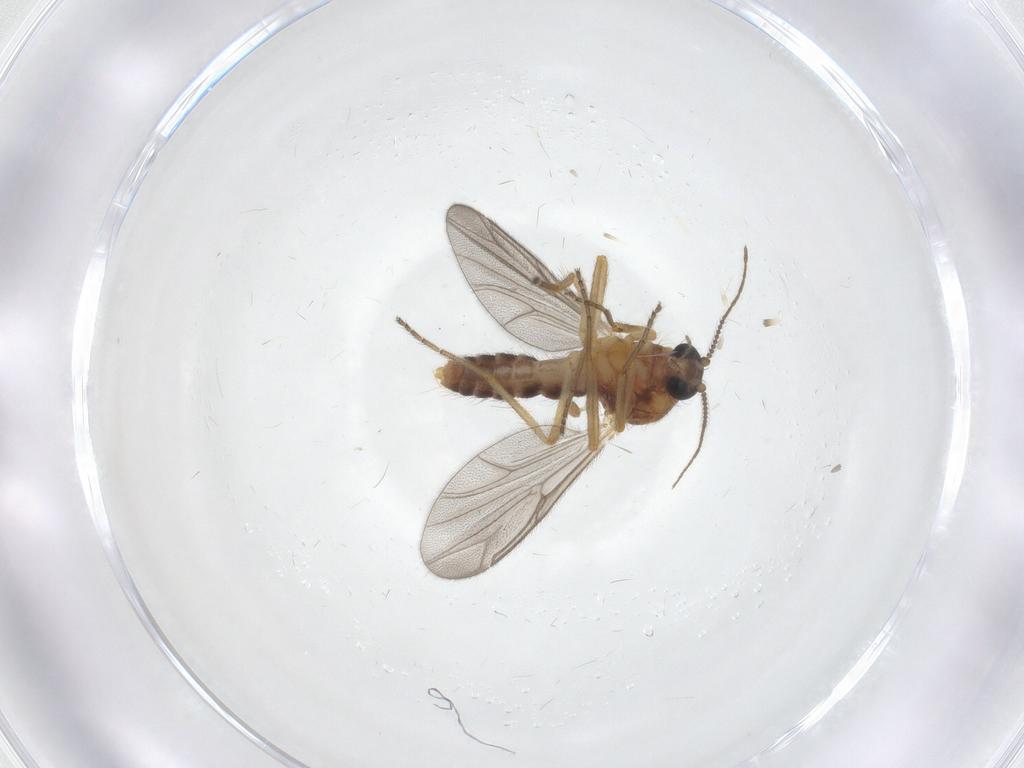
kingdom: Animalia
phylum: Arthropoda
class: Insecta
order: Diptera
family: Ceratopogonidae
